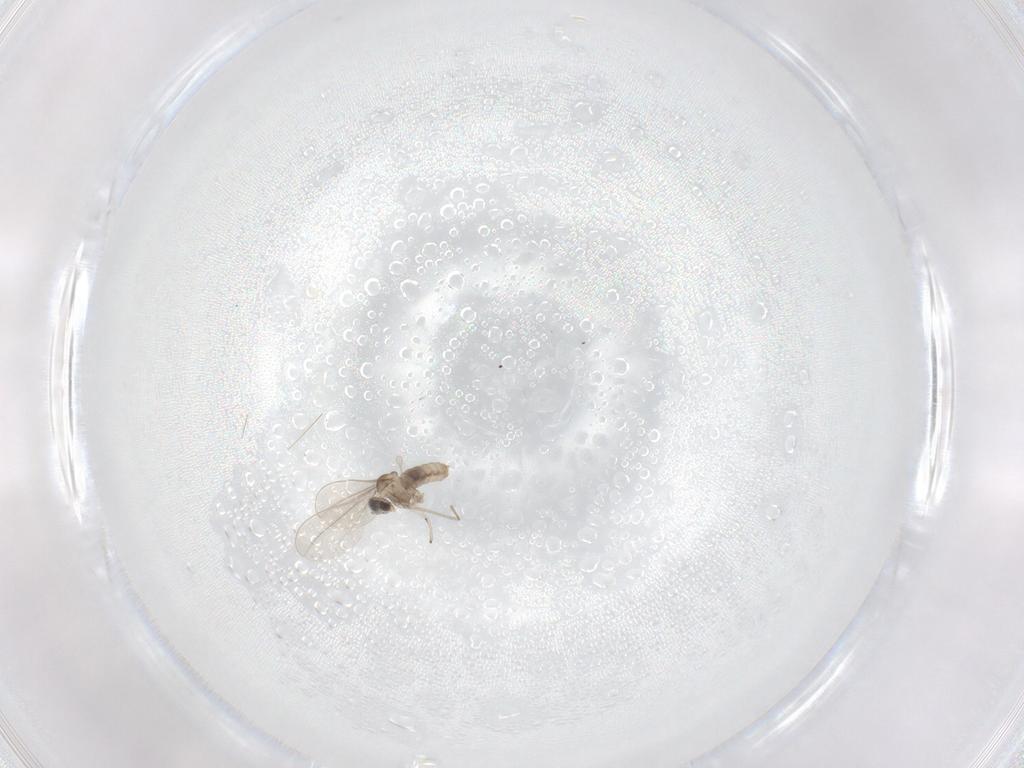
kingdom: Animalia
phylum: Arthropoda
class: Insecta
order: Diptera
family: Cecidomyiidae
